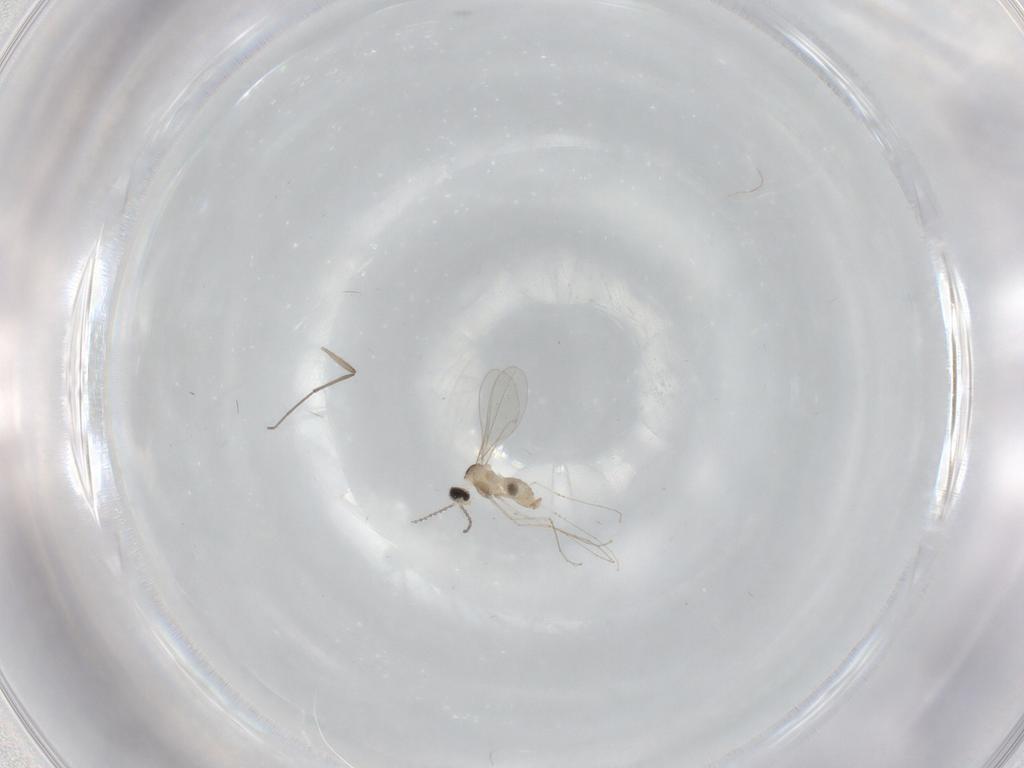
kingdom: Animalia
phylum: Arthropoda
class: Insecta
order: Diptera
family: Cecidomyiidae
